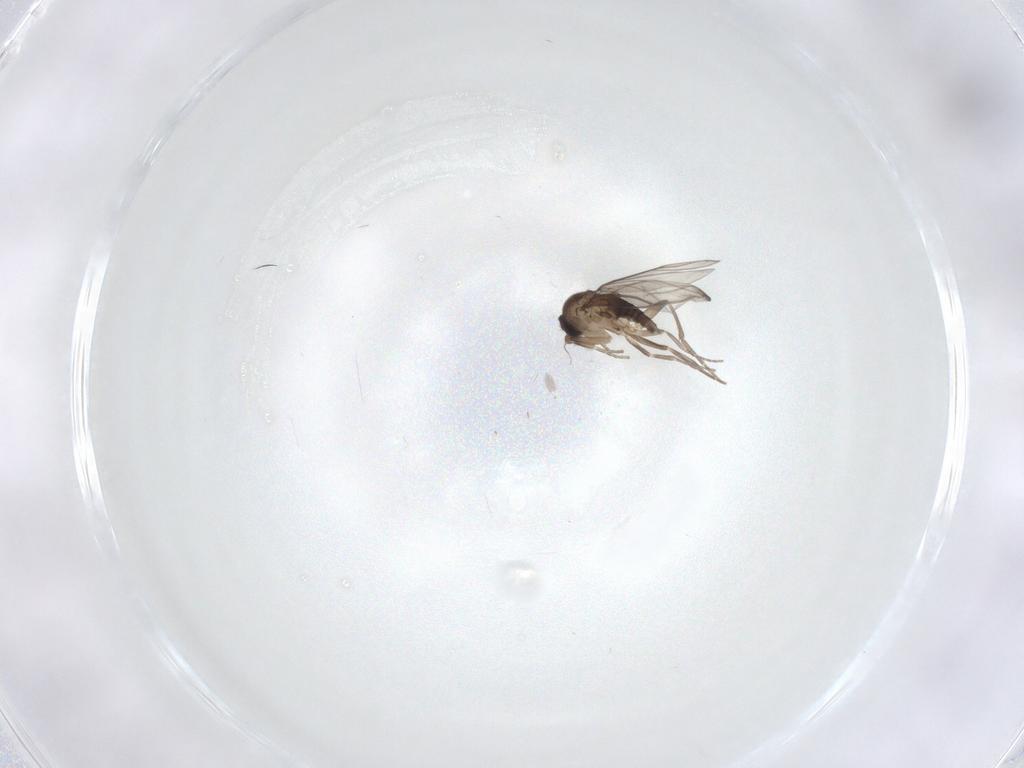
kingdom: Animalia
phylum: Arthropoda
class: Insecta
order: Diptera
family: Phoridae
